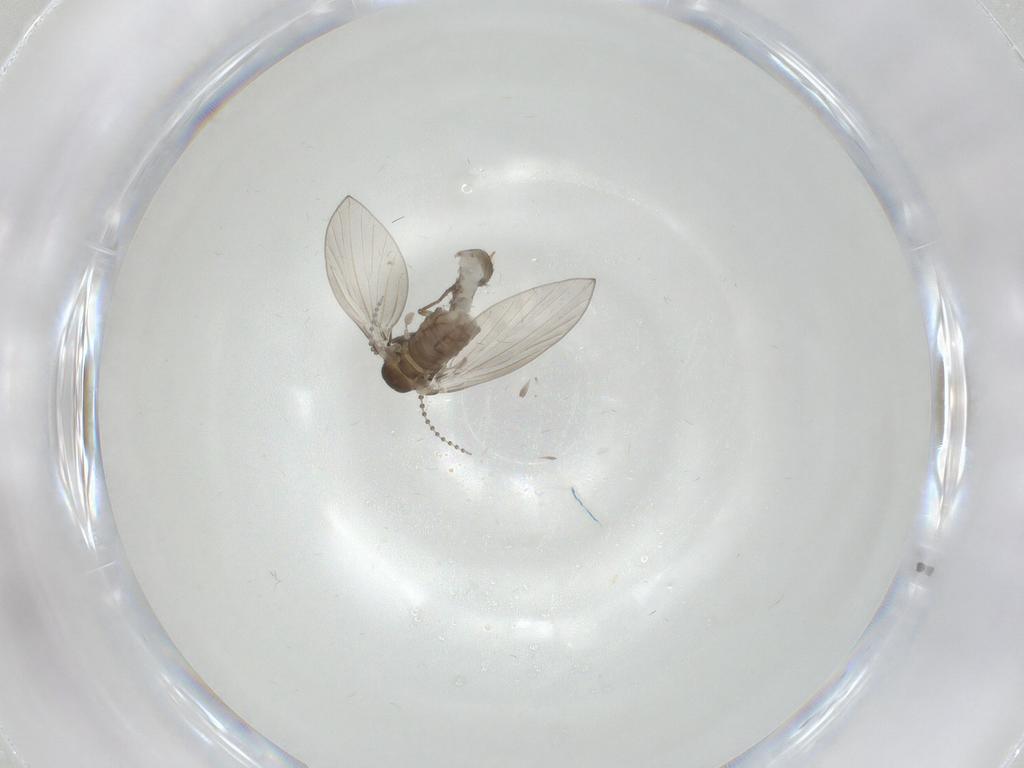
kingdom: Animalia
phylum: Arthropoda
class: Insecta
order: Diptera
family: Psychodidae
